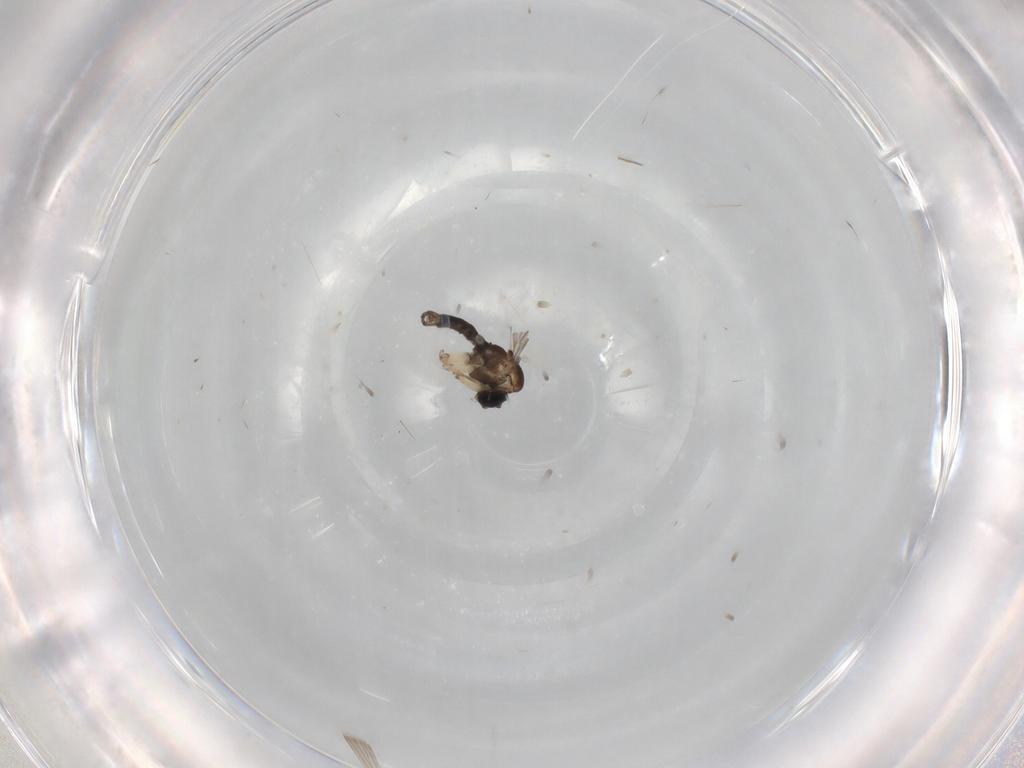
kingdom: Animalia
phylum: Arthropoda
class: Insecta
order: Diptera
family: Sciaridae
